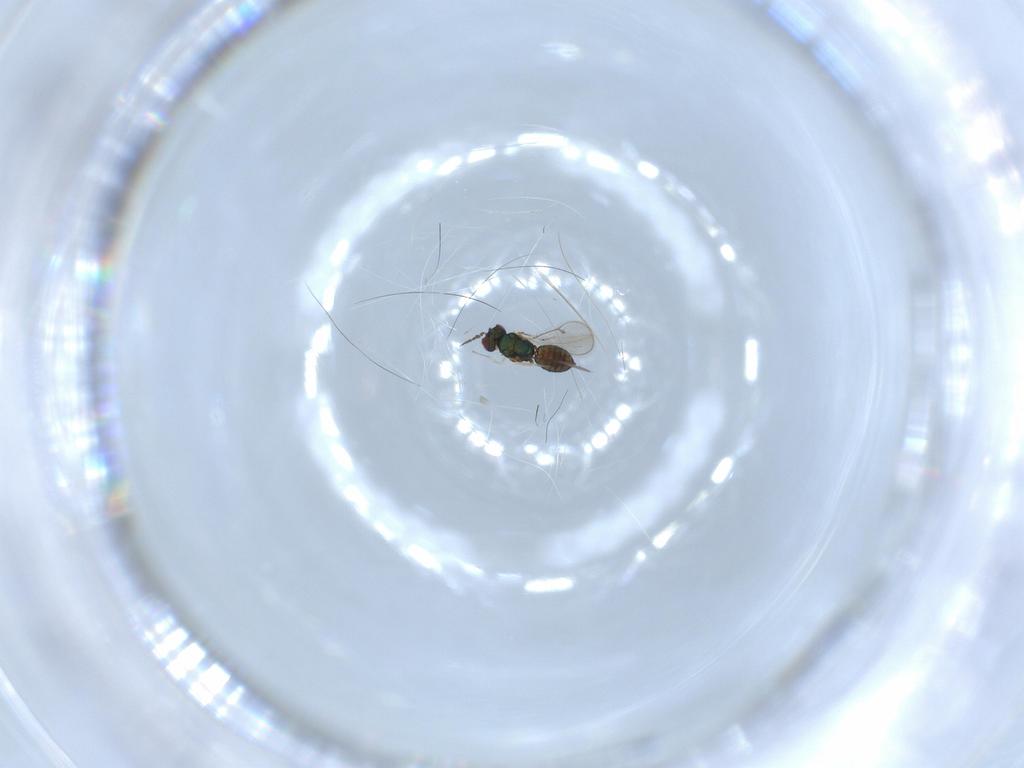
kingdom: Animalia
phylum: Arthropoda
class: Insecta
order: Hymenoptera
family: Eulophidae
